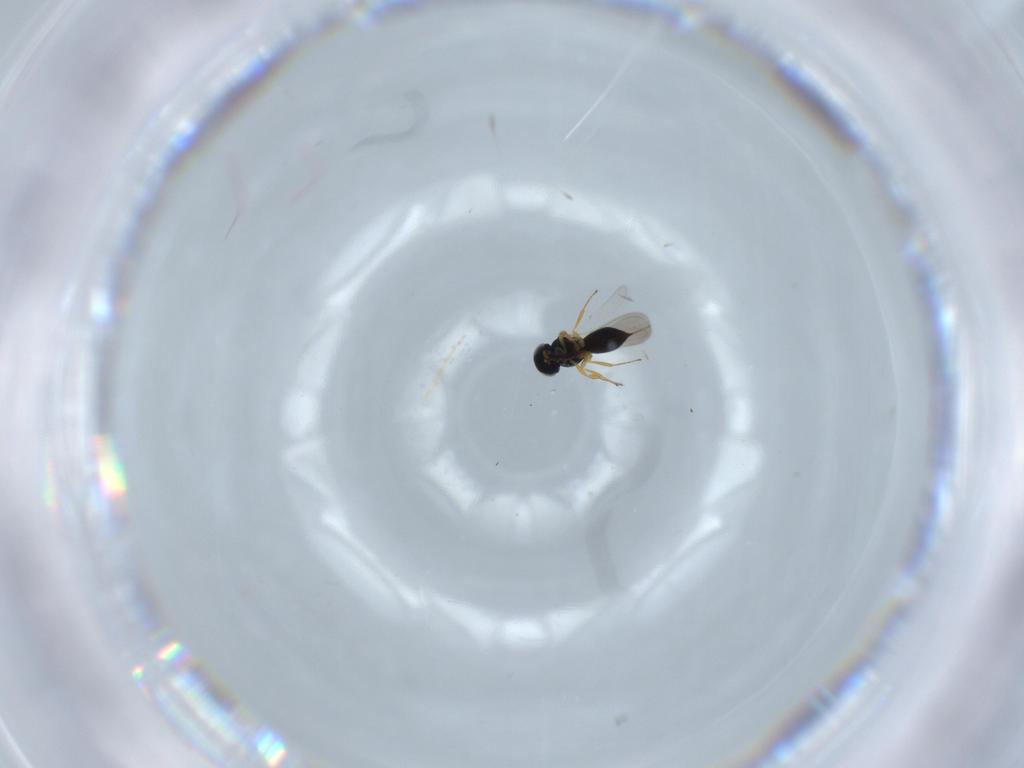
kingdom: Animalia
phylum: Arthropoda
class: Insecta
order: Hymenoptera
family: Scelionidae
